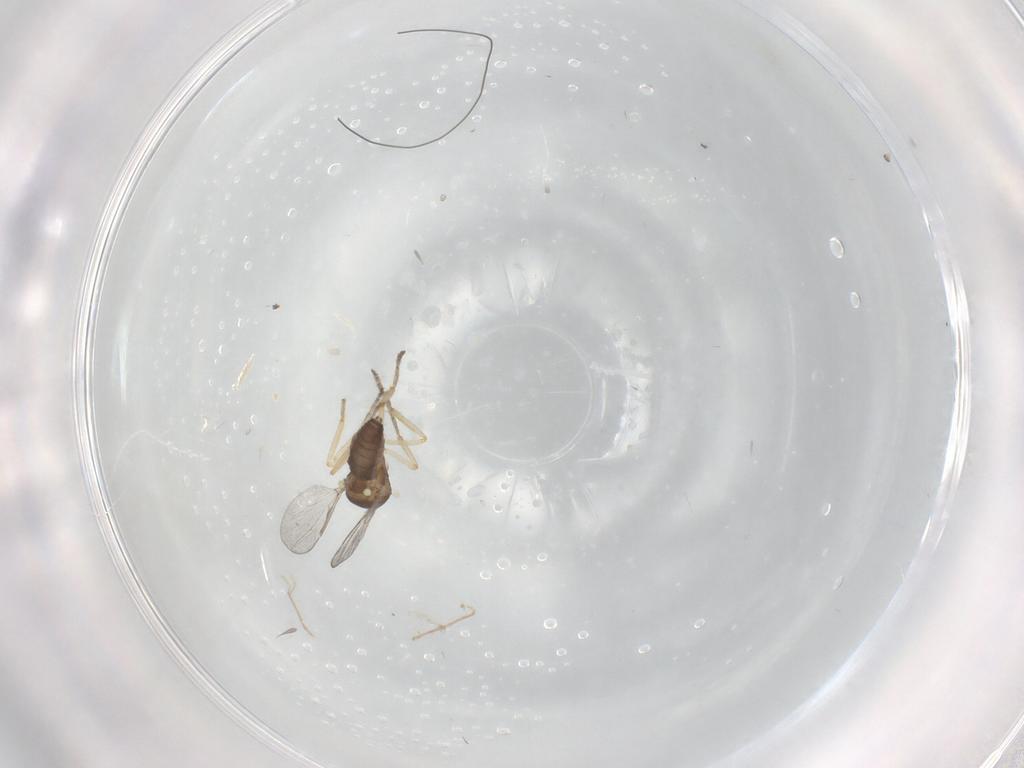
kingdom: Animalia
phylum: Arthropoda
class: Insecta
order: Diptera
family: Ceratopogonidae
